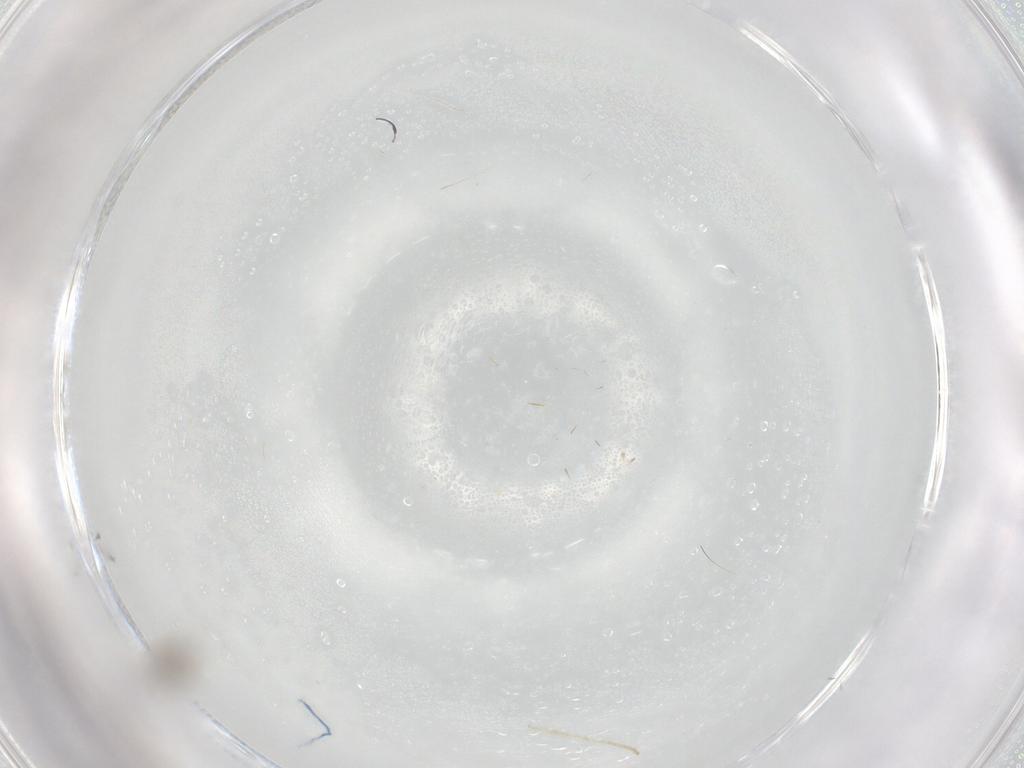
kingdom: Animalia
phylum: Arthropoda
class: Insecta
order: Diptera
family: Cecidomyiidae
